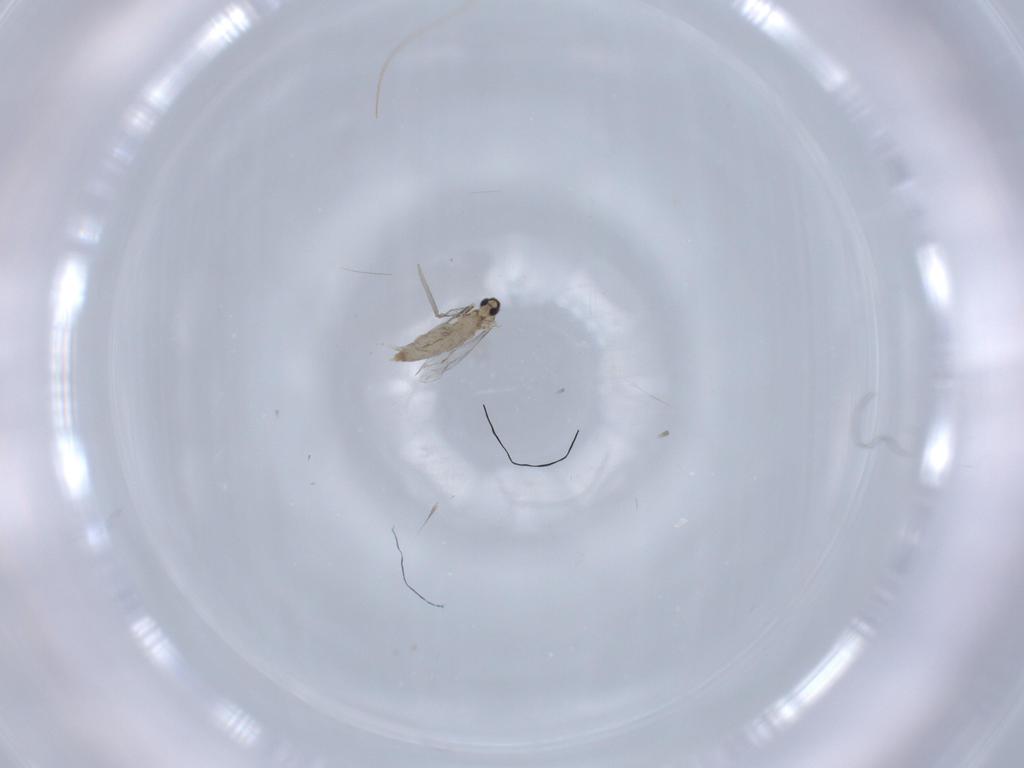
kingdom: Animalia
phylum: Arthropoda
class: Insecta
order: Diptera
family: Cecidomyiidae
